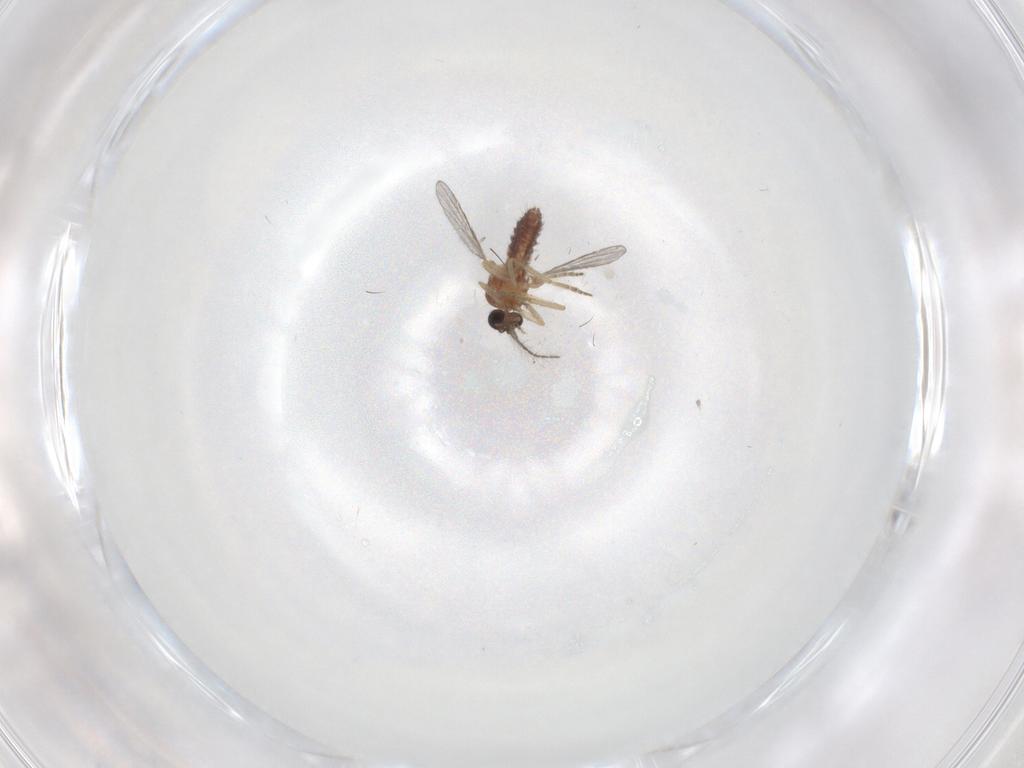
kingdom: Animalia
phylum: Arthropoda
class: Insecta
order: Diptera
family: Ceratopogonidae
